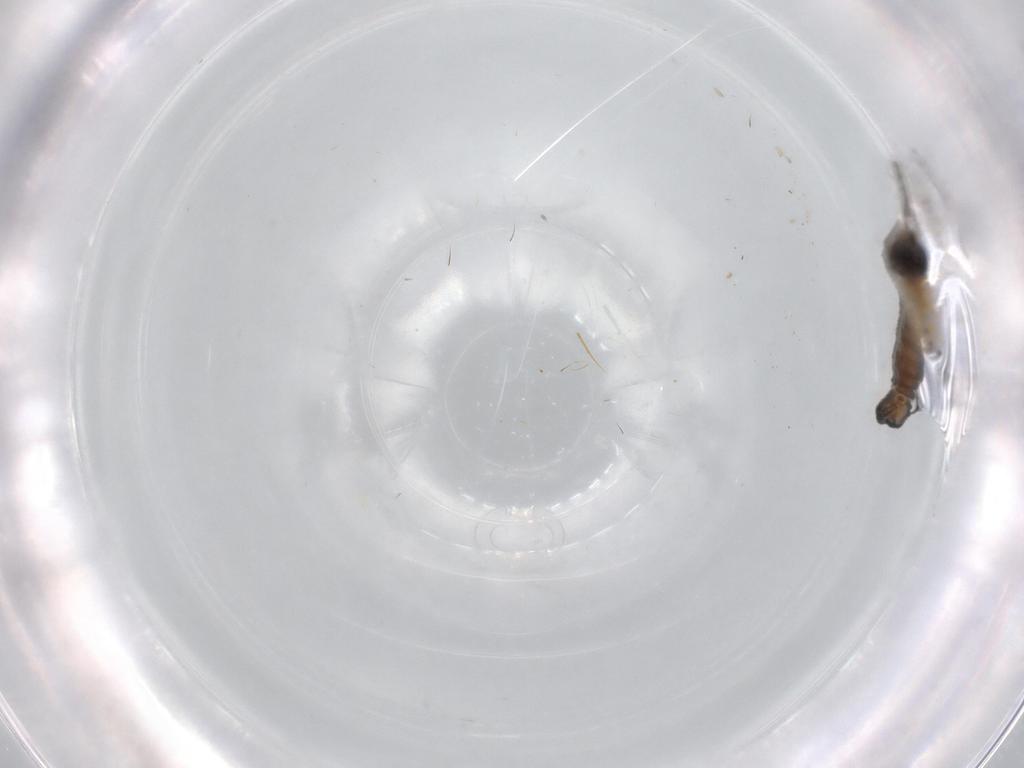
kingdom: Animalia
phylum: Arthropoda
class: Insecta
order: Diptera
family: Sciaridae
